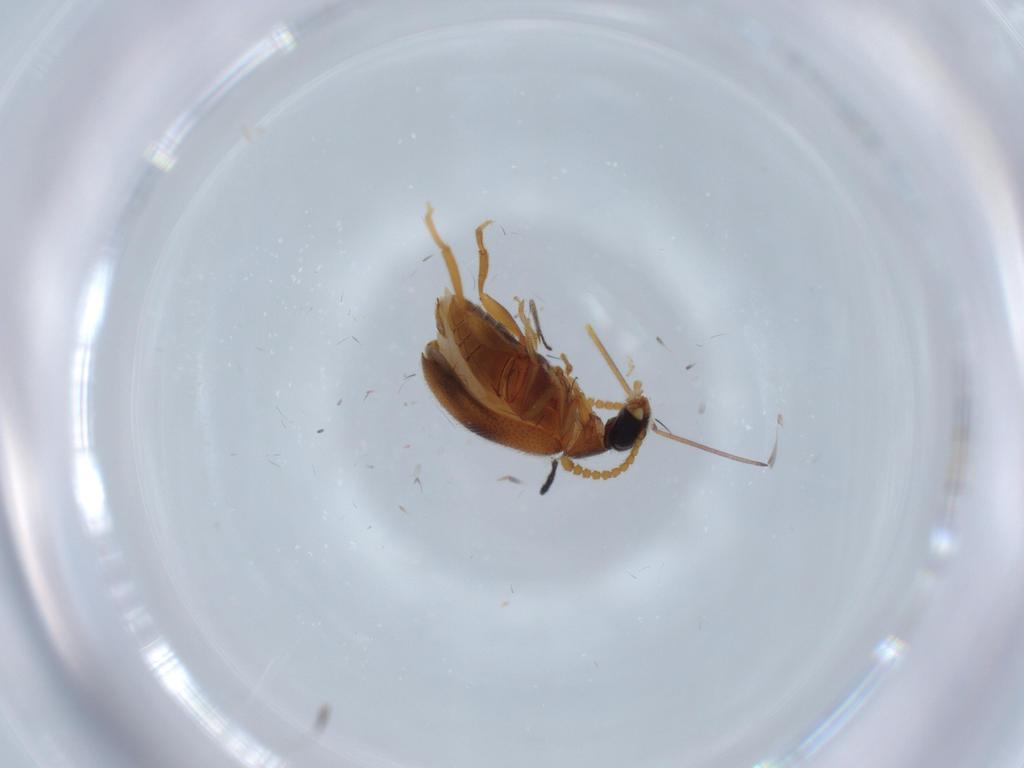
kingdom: Animalia
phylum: Arthropoda
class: Insecta
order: Coleoptera
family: Aderidae
